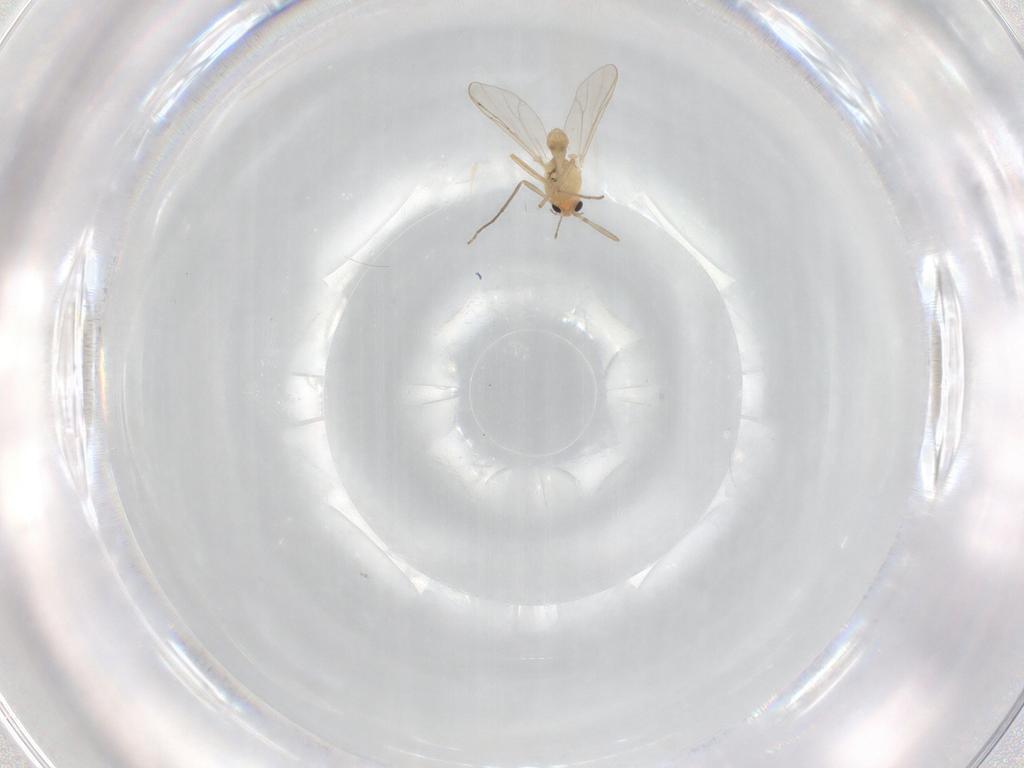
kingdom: Animalia
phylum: Arthropoda
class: Insecta
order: Diptera
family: Chironomidae
